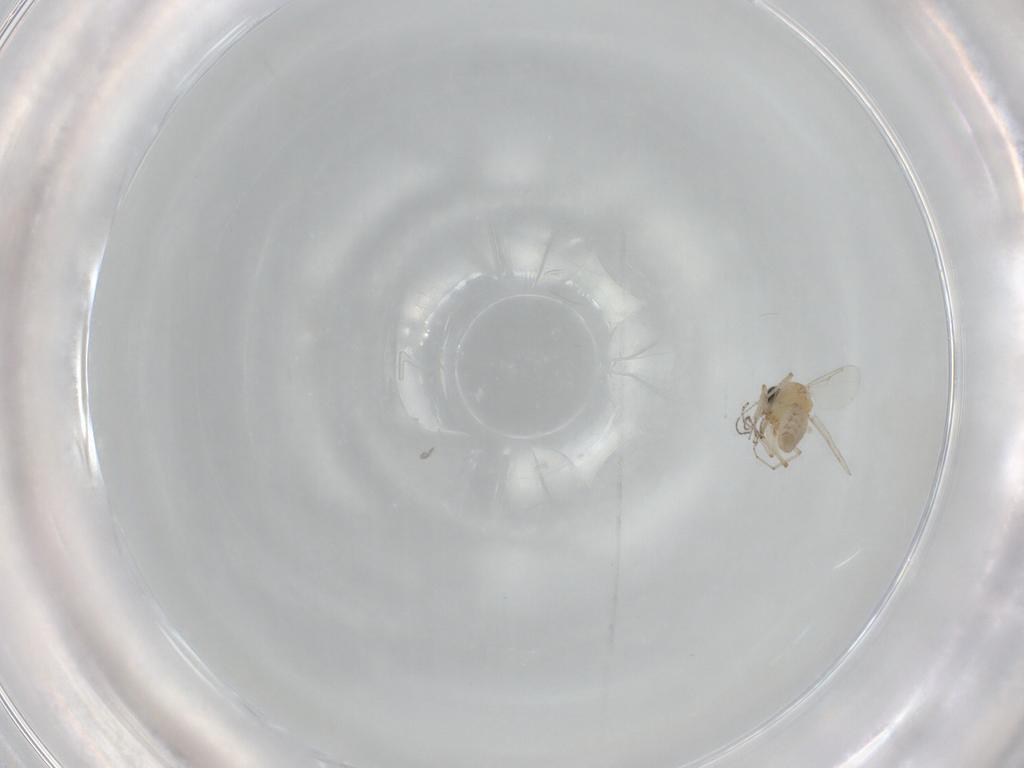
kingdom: Animalia
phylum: Arthropoda
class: Insecta
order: Diptera
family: Ceratopogonidae
